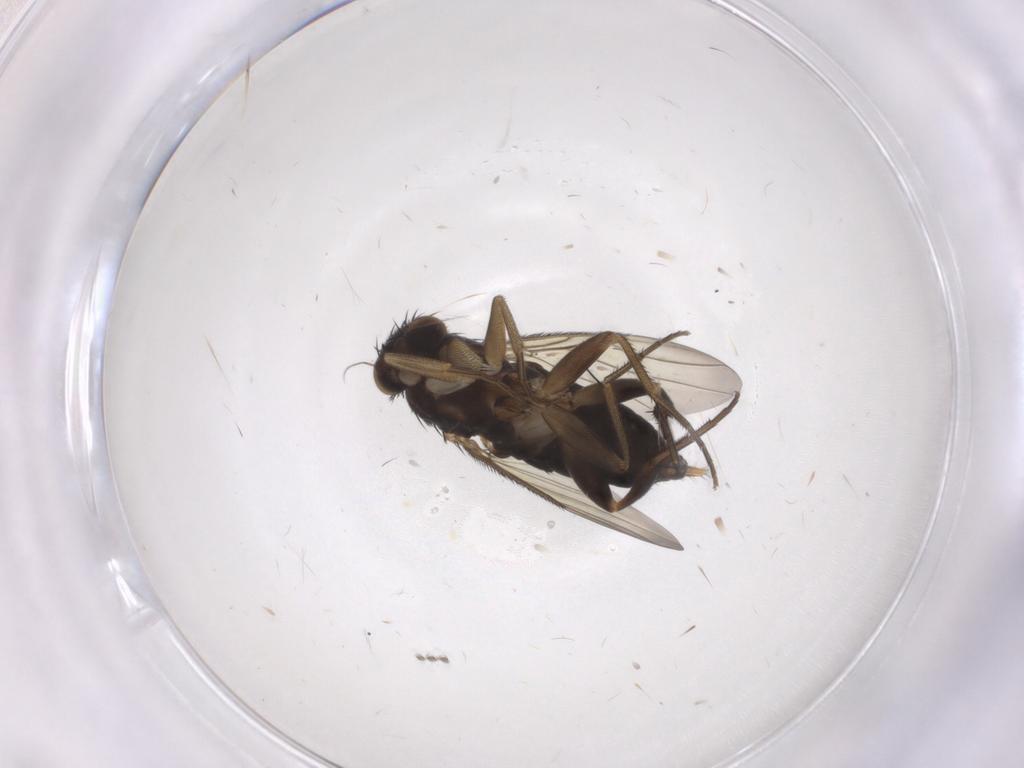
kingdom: Animalia
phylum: Arthropoda
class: Insecta
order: Diptera
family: Phoridae
